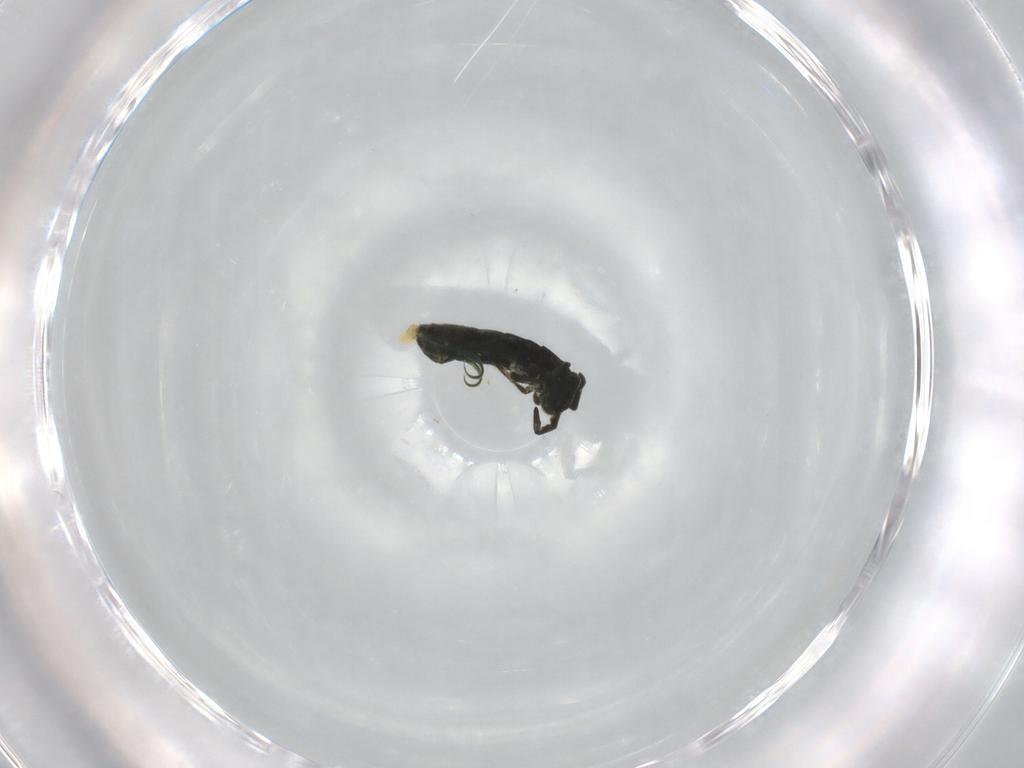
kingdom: Animalia
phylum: Arthropoda
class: Collembola
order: Entomobryomorpha
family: Isotomidae
